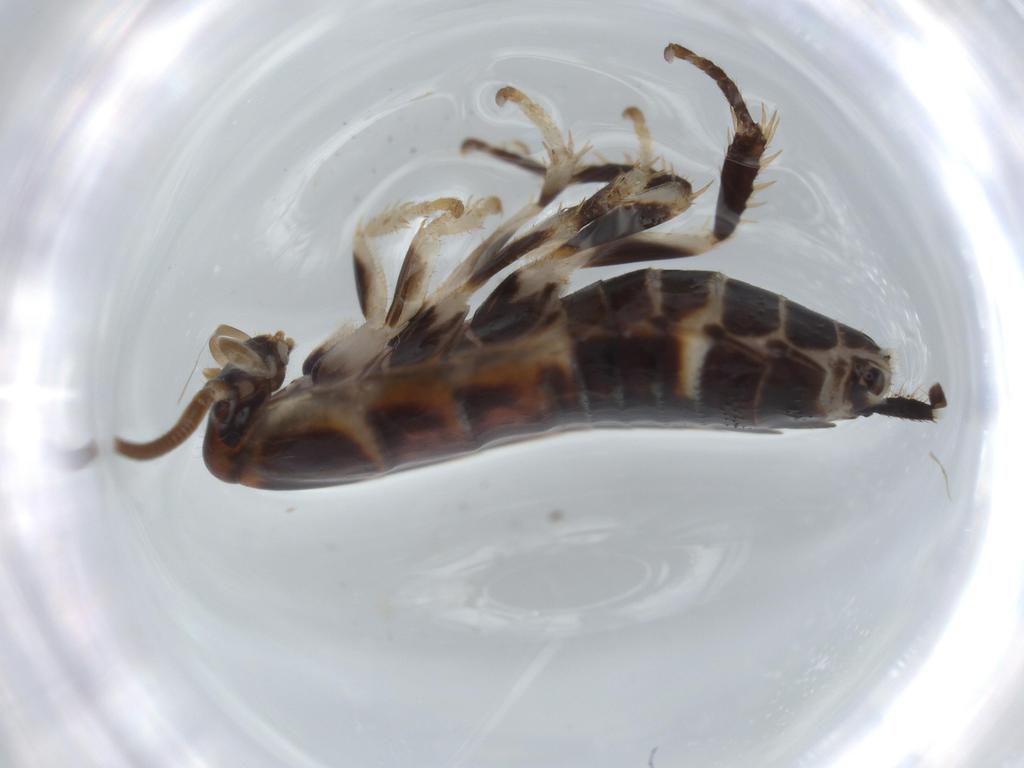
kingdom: Animalia
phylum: Arthropoda
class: Insecta
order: Blattodea
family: Ectobiidae
